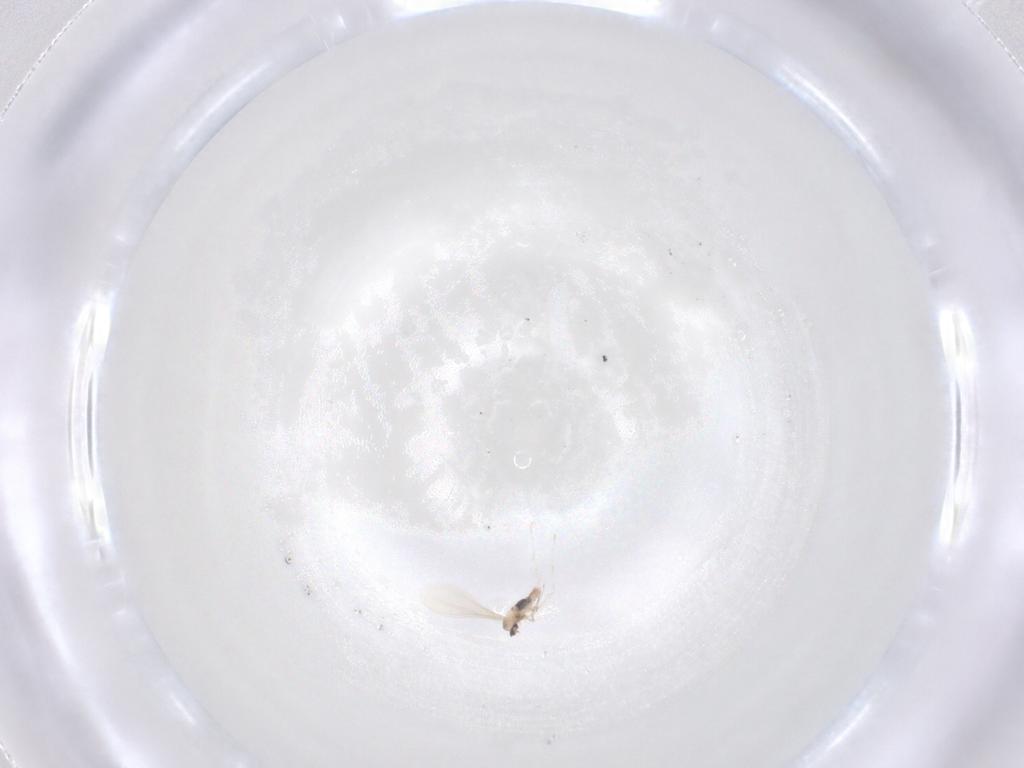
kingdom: Animalia
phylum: Arthropoda
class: Insecta
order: Diptera
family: Cecidomyiidae
